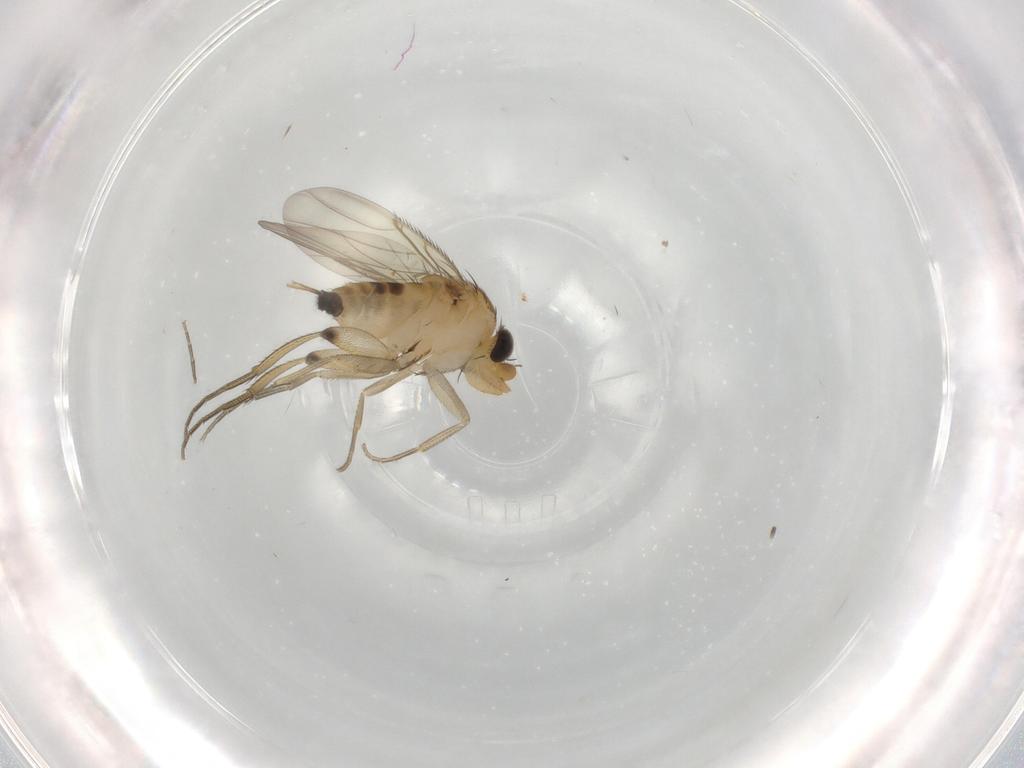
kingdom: Animalia
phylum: Arthropoda
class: Insecta
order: Diptera
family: Phoridae
